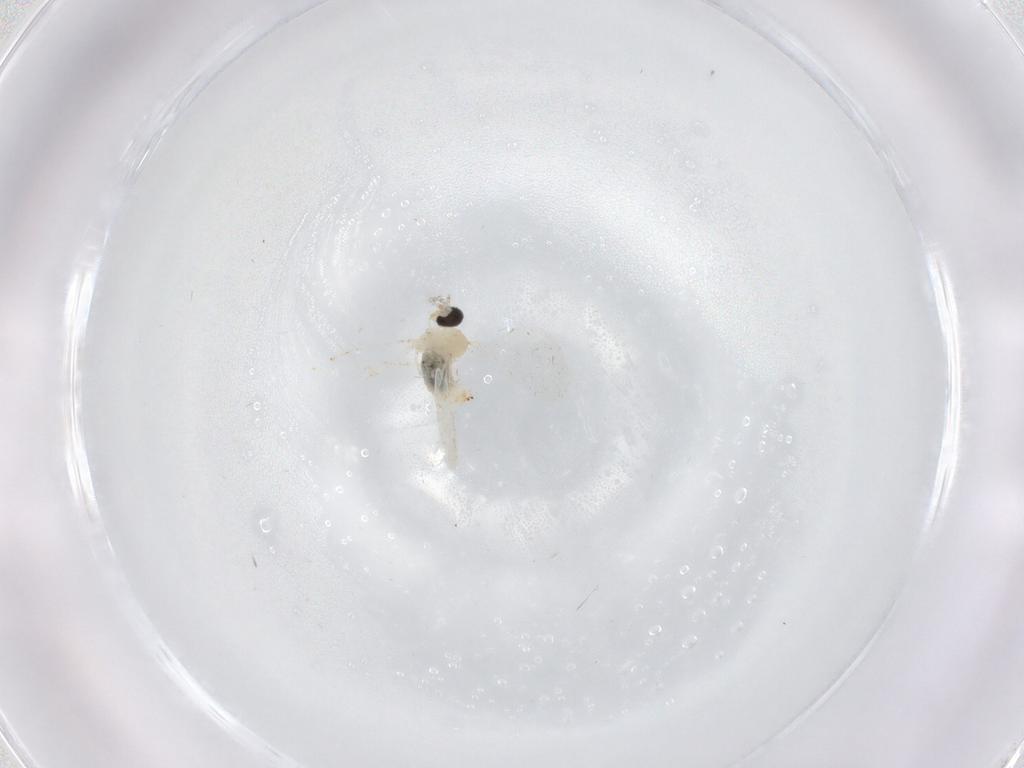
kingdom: Animalia
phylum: Arthropoda
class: Insecta
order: Diptera
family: Cecidomyiidae
